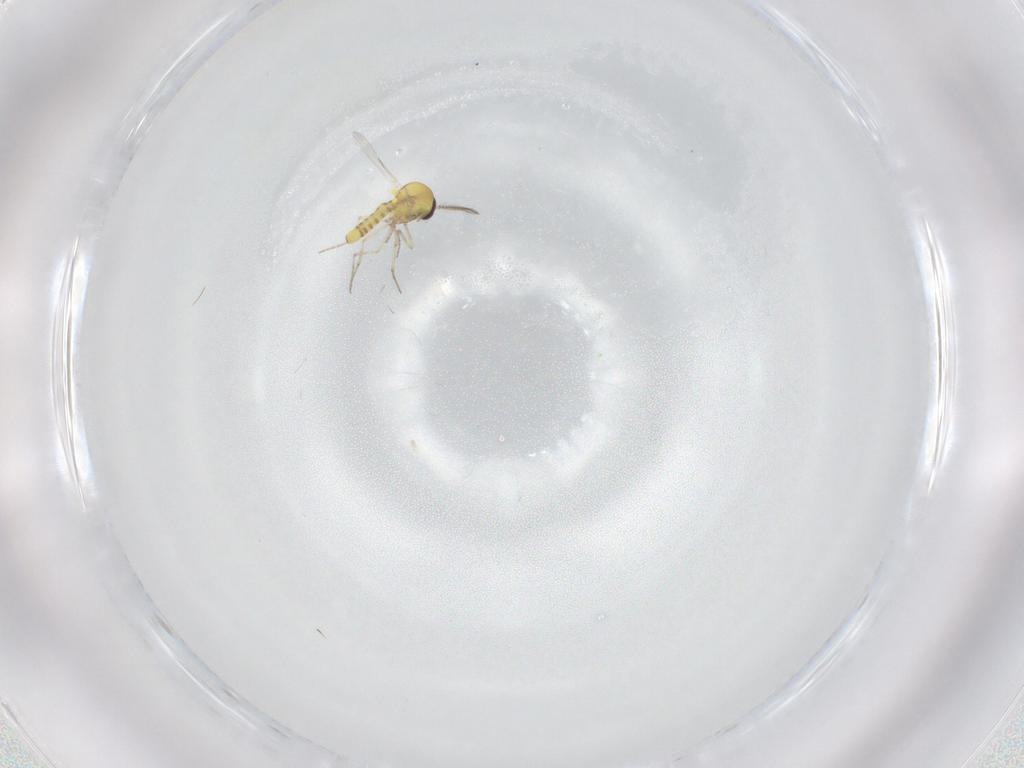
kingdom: Animalia
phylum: Arthropoda
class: Insecta
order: Diptera
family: Ceratopogonidae
